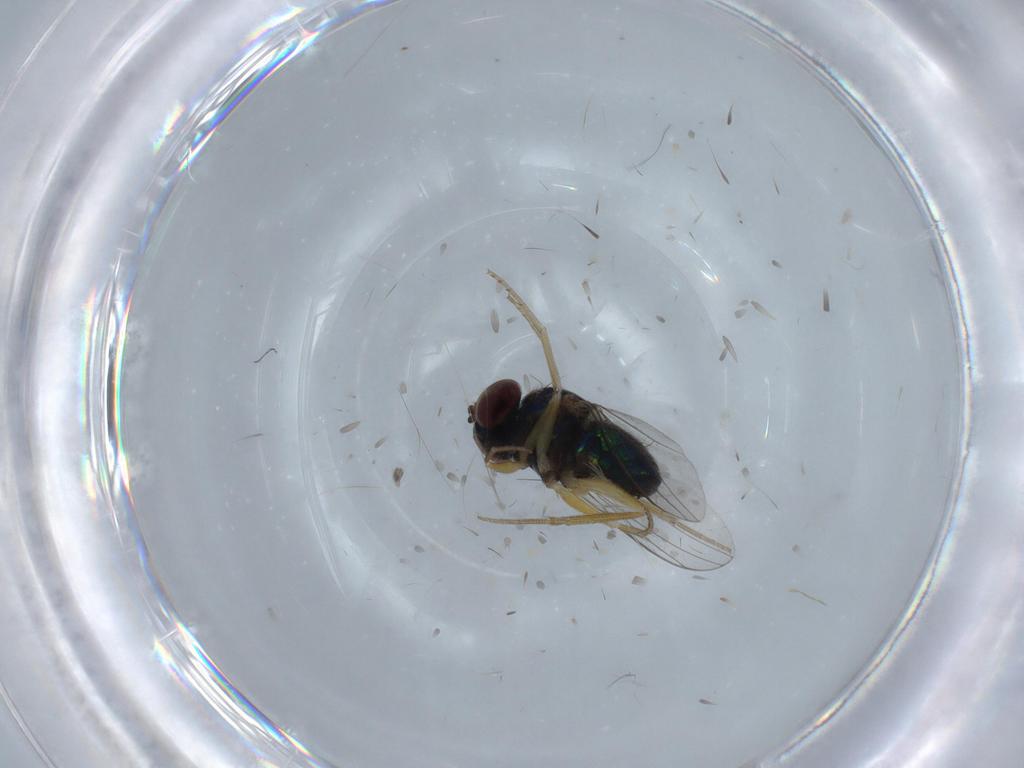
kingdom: Animalia
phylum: Arthropoda
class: Insecta
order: Diptera
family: Dolichopodidae
